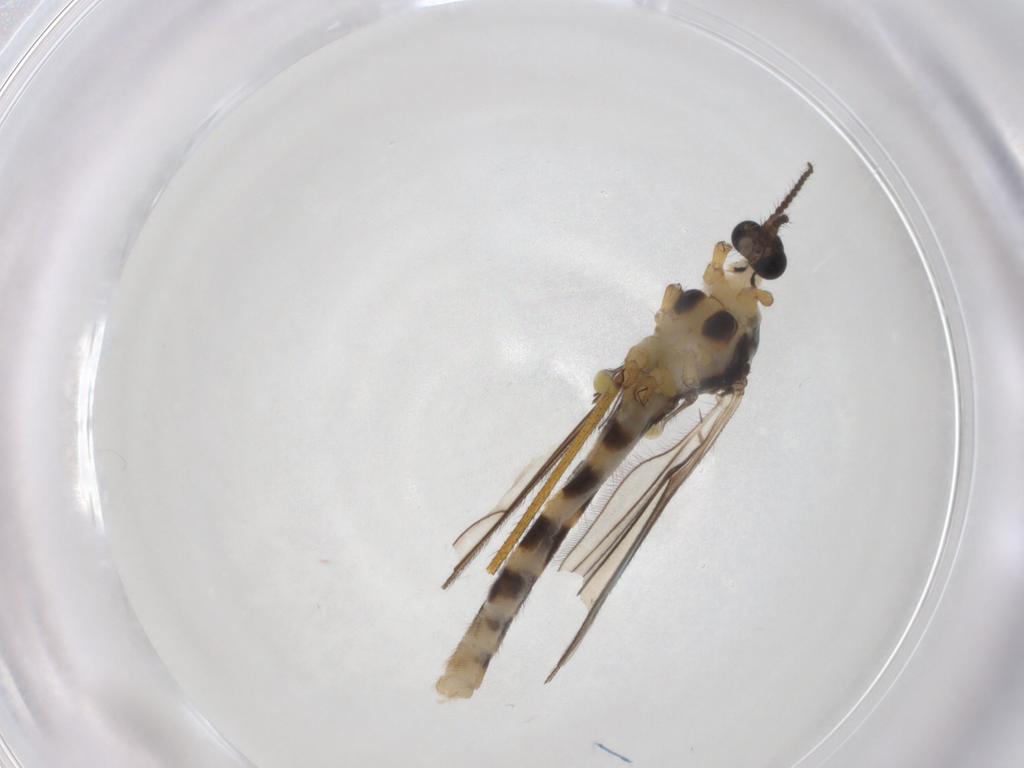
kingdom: Animalia
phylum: Arthropoda
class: Insecta
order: Diptera
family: Limoniidae
